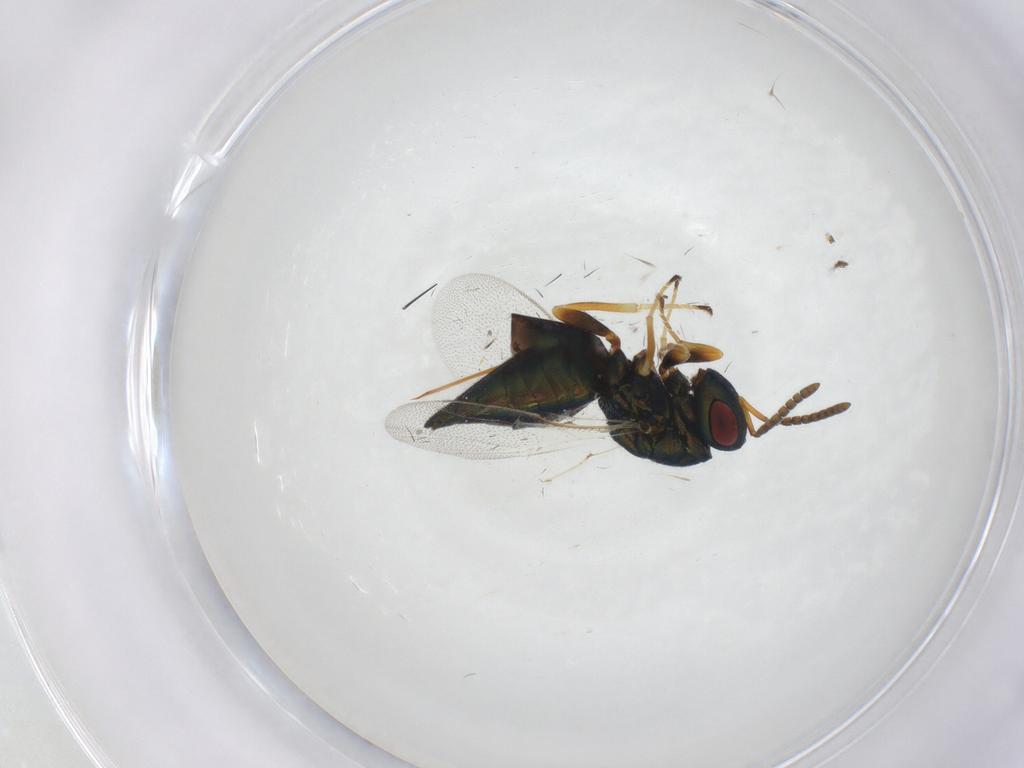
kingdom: Animalia
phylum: Arthropoda
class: Insecta
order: Hymenoptera
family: Pteromalidae
